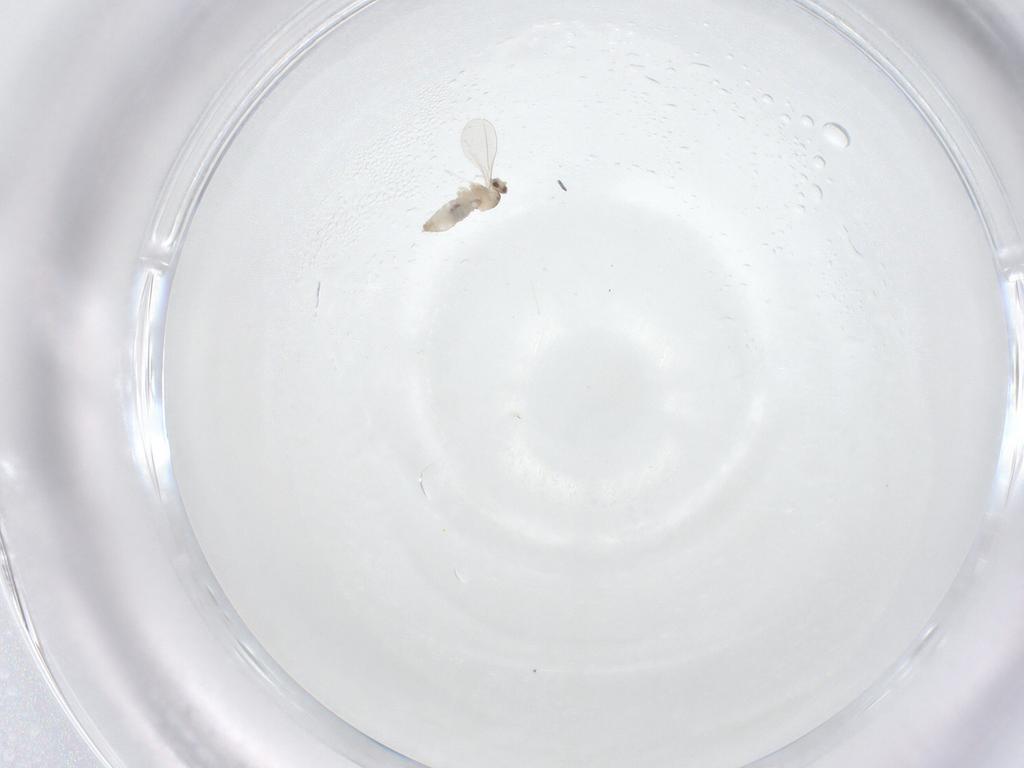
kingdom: Animalia
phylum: Arthropoda
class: Insecta
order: Diptera
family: Cecidomyiidae
